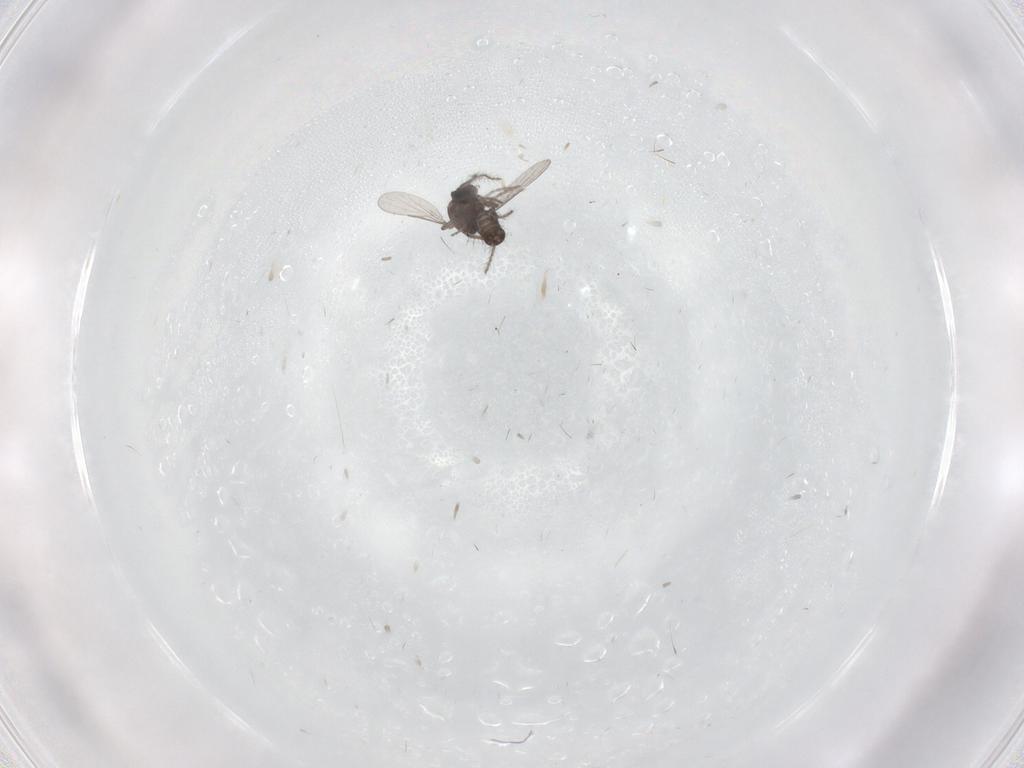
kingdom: Animalia
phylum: Arthropoda
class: Insecta
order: Diptera
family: Ceratopogonidae
